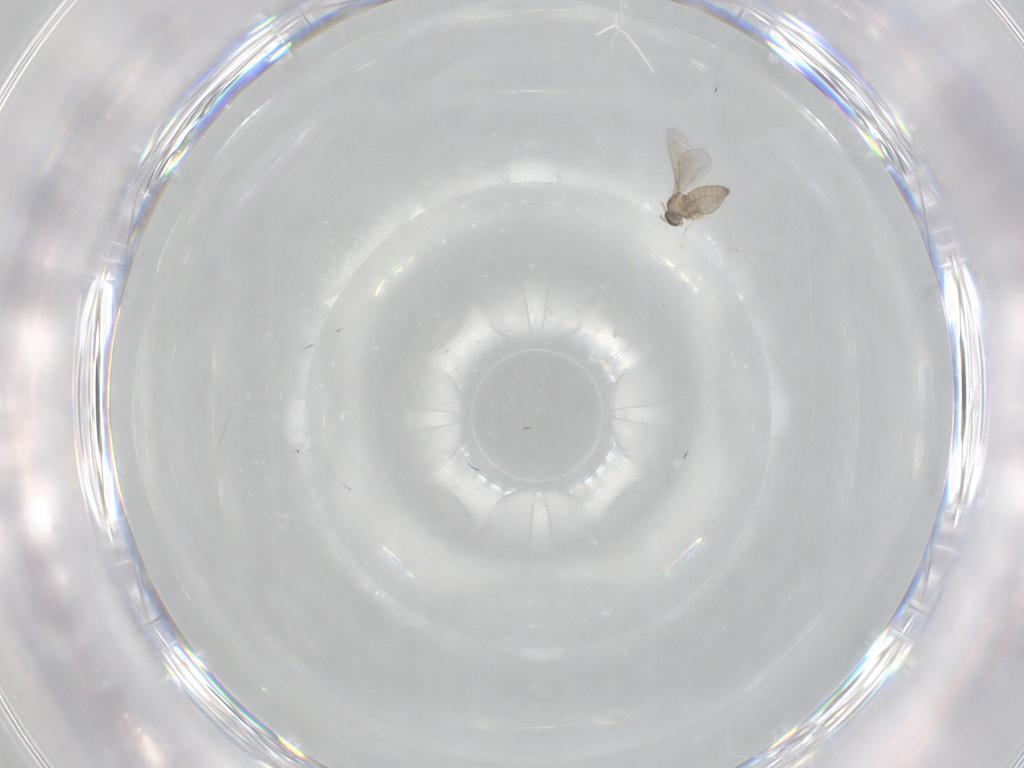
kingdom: Animalia
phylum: Arthropoda
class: Insecta
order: Diptera
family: Cecidomyiidae
